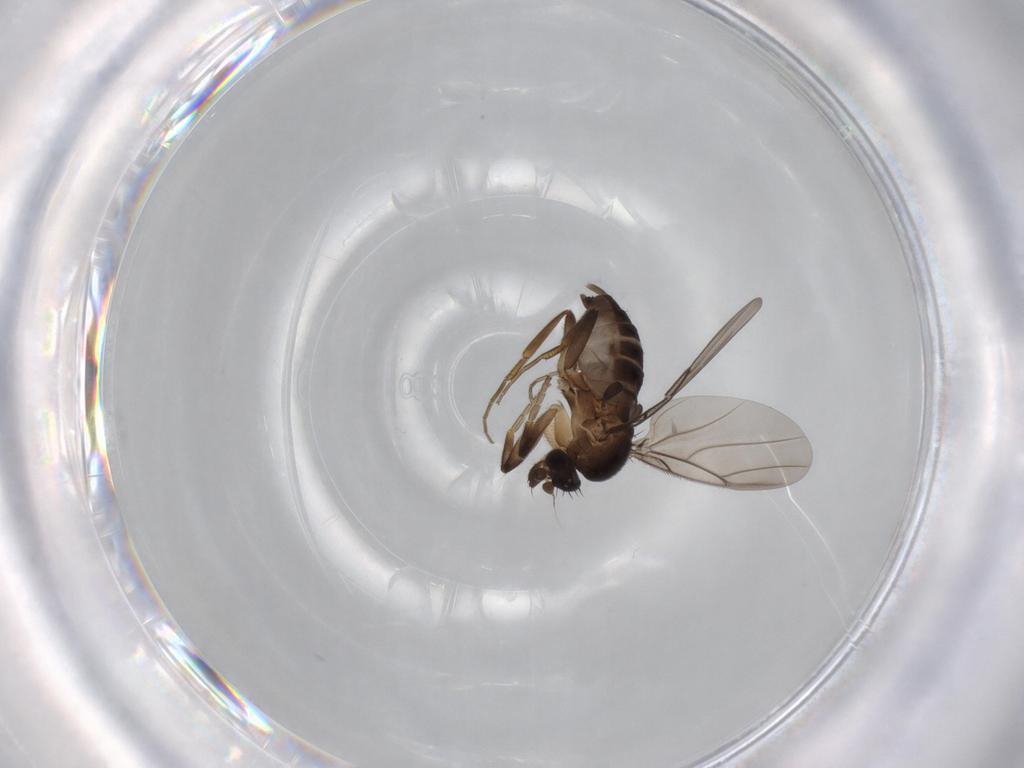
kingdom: Animalia
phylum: Arthropoda
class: Insecta
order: Diptera
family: Phoridae
